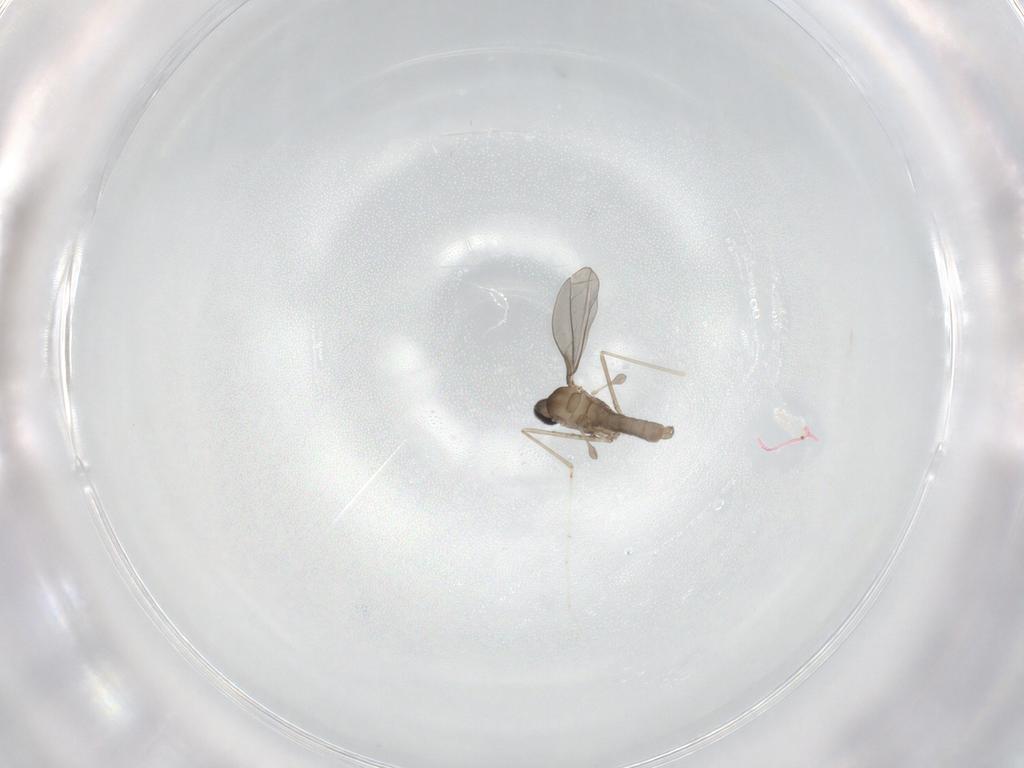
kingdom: Animalia
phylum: Arthropoda
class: Insecta
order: Diptera
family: Cecidomyiidae
